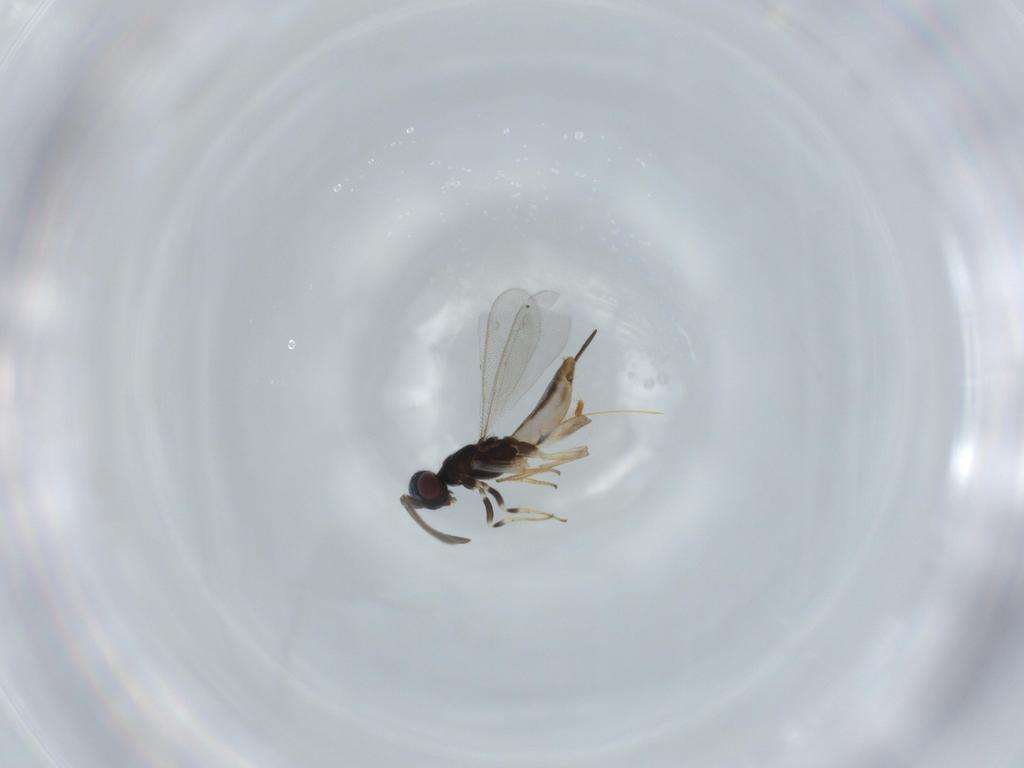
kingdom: Animalia
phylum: Arthropoda
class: Insecta
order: Hymenoptera
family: Eupelmidae
